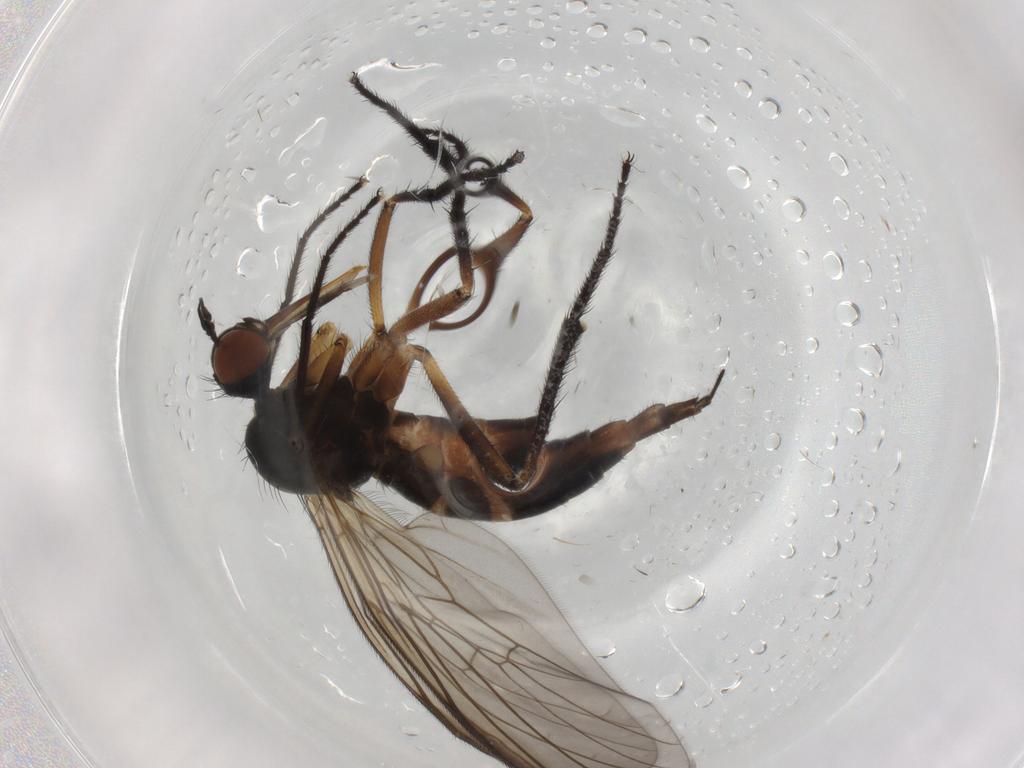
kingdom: Animalia
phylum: Arthropoda
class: Insecta
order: Diptera
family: Empididae
